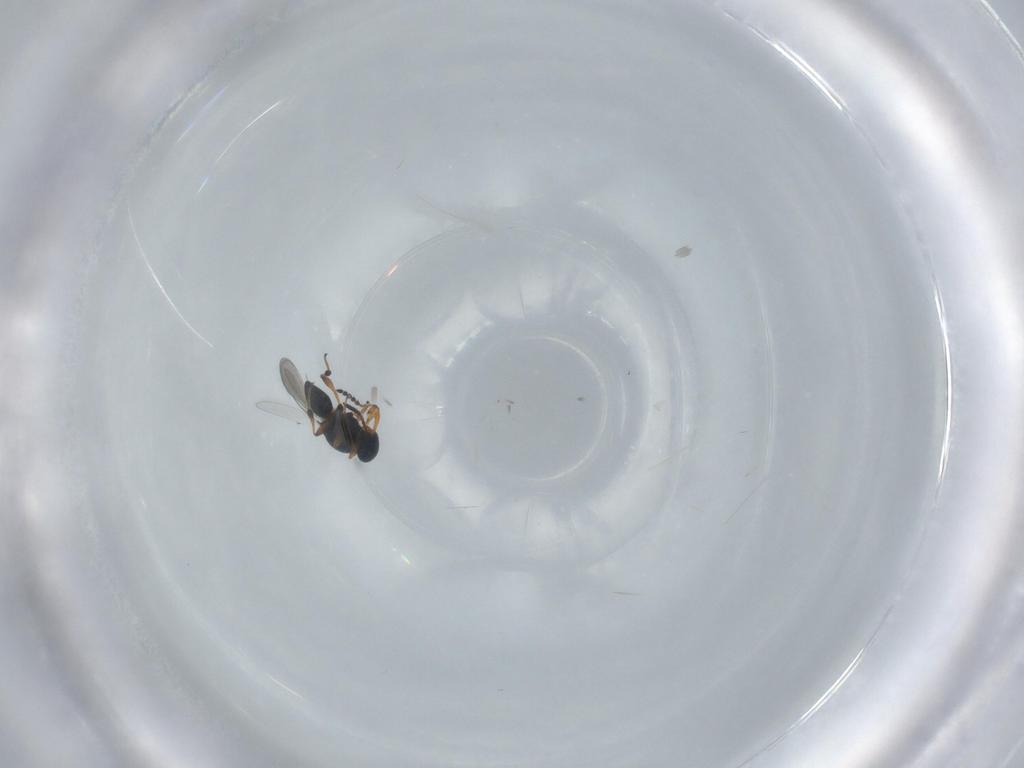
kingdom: Animalia
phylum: Arthropoda
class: Insecta
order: Hymenoptera
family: Platygastridae
